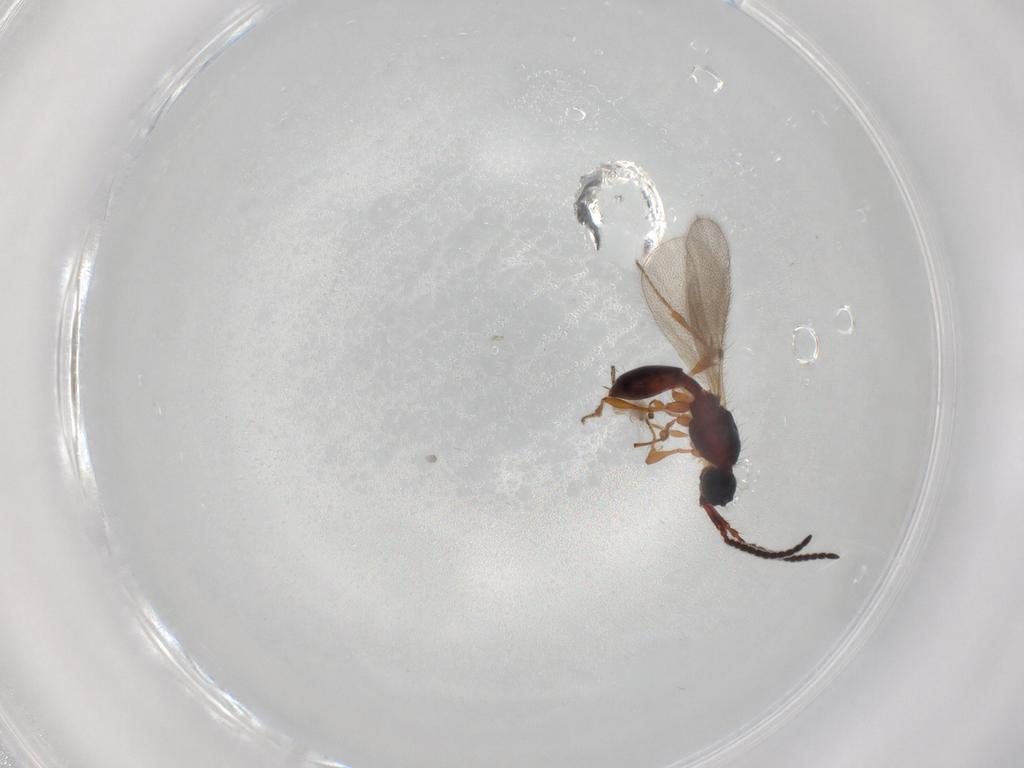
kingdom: Animalia
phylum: Arthropoda
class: Insecta
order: Hymenoptera
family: Diapriidae
